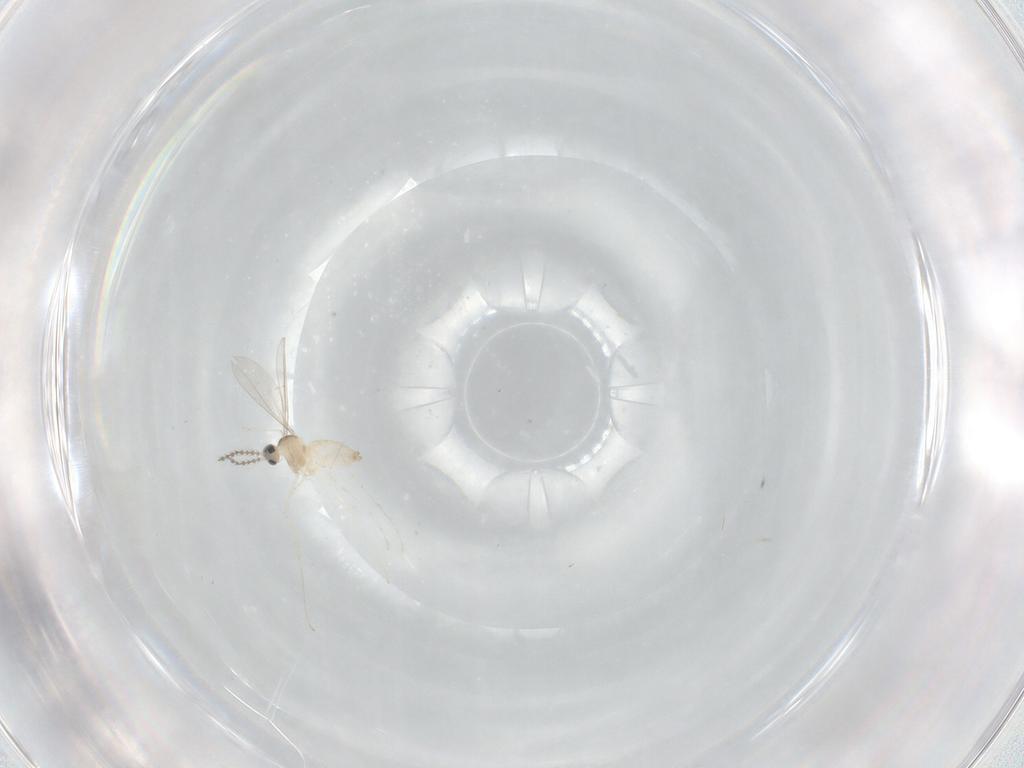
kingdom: Animalia
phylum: Arthropoda
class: Insecta
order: Diptera
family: Cecidomyiidae
